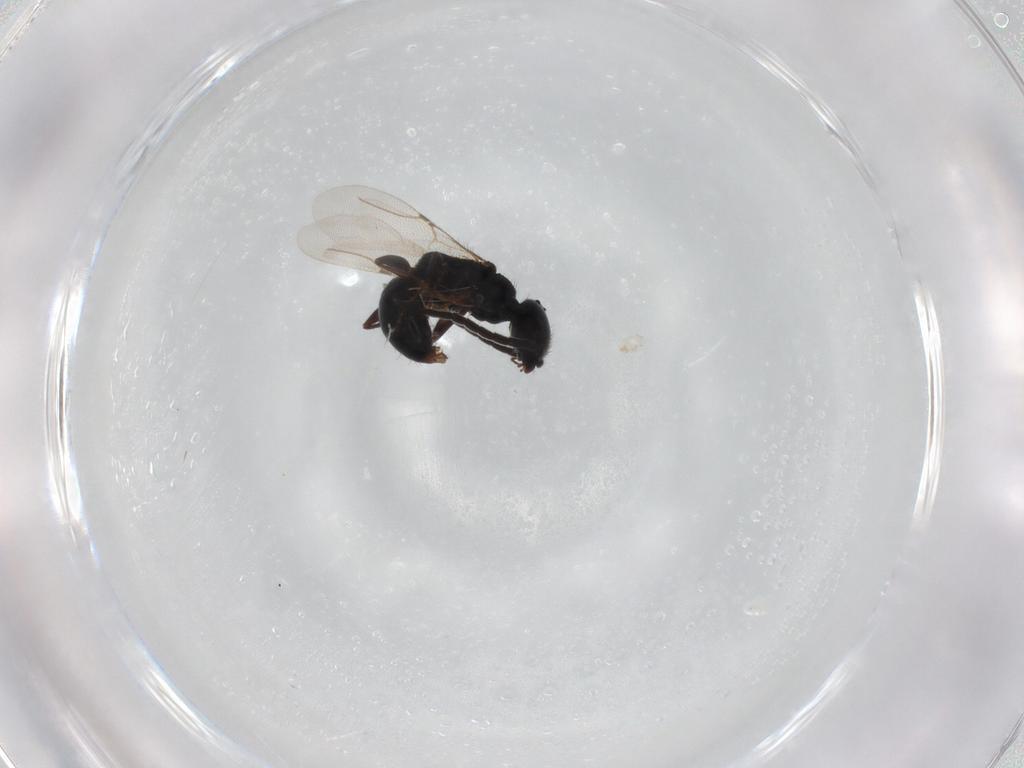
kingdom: Animalia
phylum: Arthropoda
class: Insecta
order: Hymenoptera
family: Bethylidae
